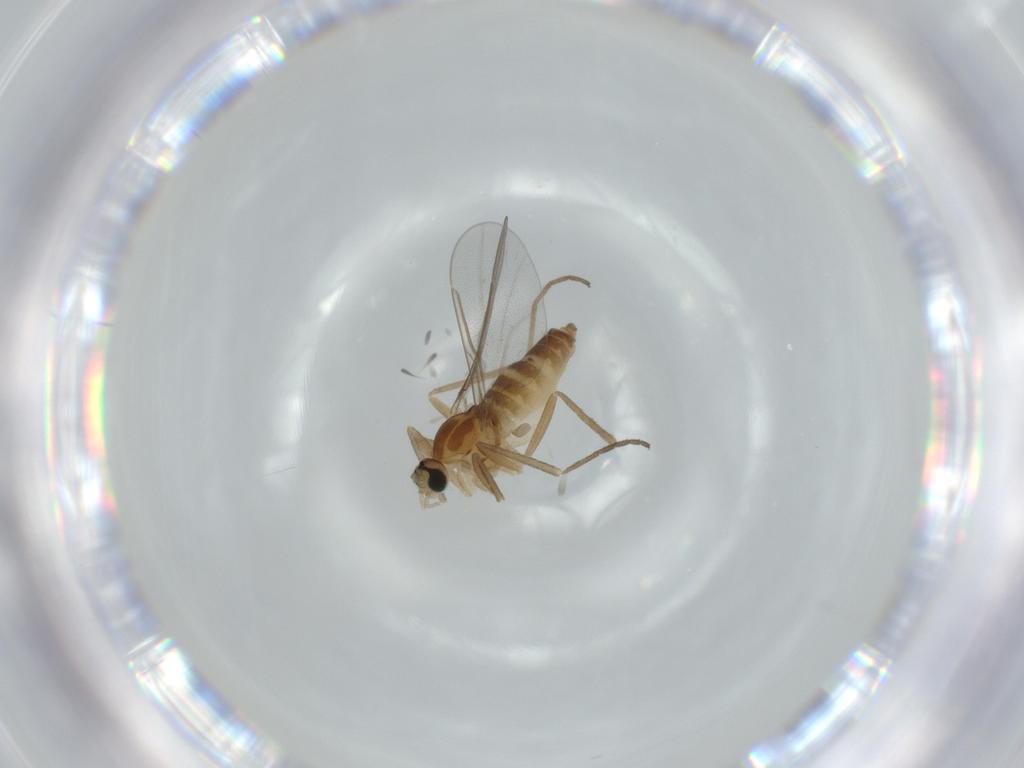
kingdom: Animalia
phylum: Arthropoda
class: Insecta
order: Diptera
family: Cecidomyiidae
